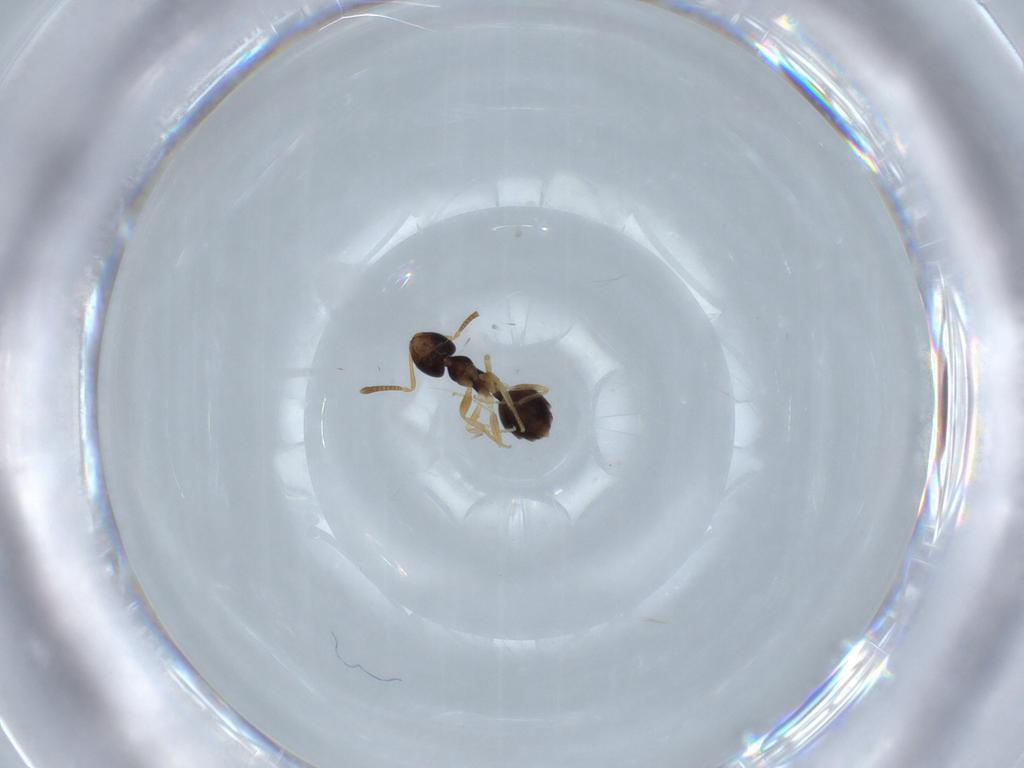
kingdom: Animalia
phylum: Arthropoda
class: Insecta
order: Hymenoptera
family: Formicidae
